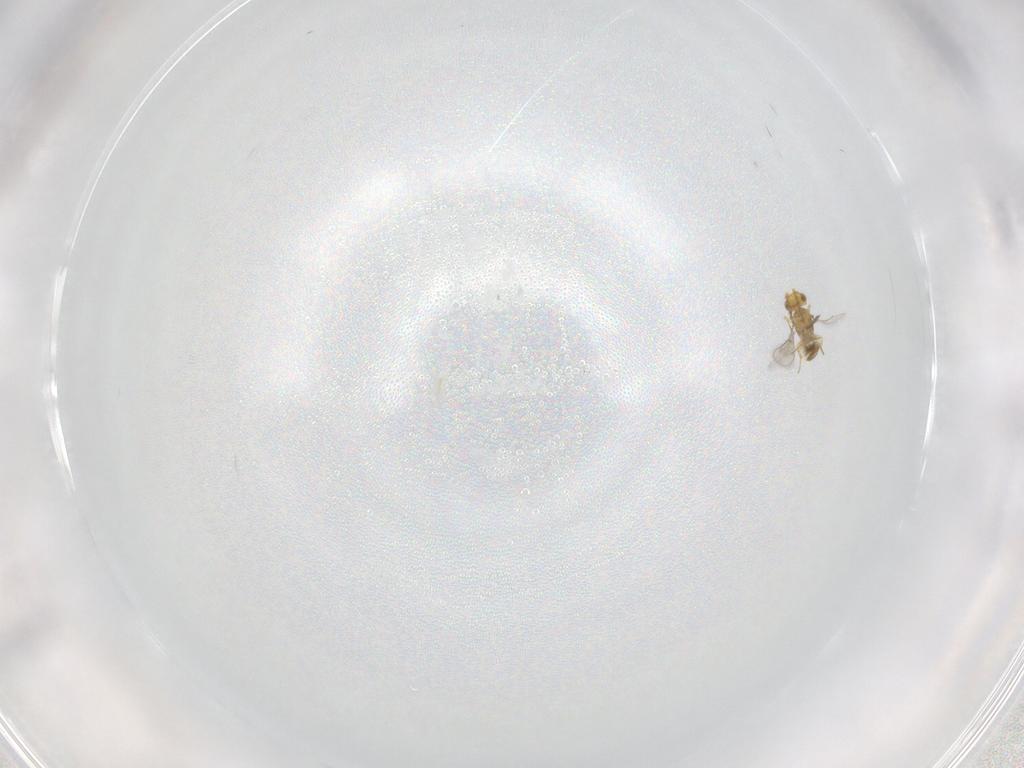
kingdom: Animalia
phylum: Arthropoda
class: Insecta
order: Hymenoptera
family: Aphelinidae
